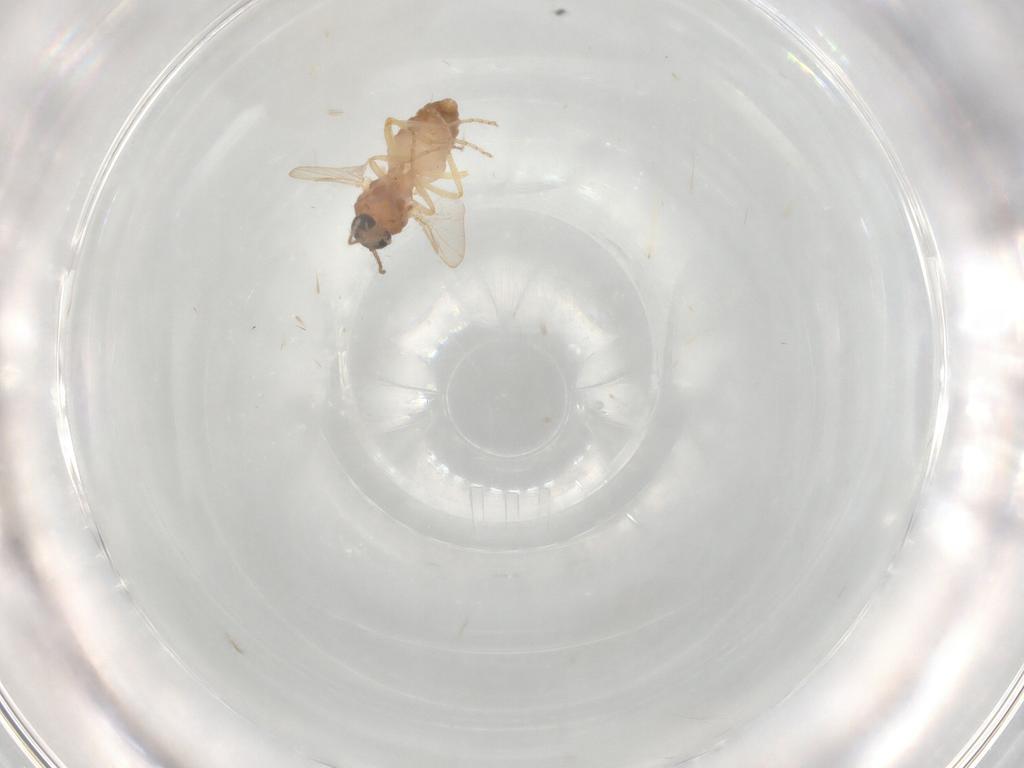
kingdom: Animalia
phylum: Arthropoda
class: Insecta
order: Diptera
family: Ceratopogonidae
